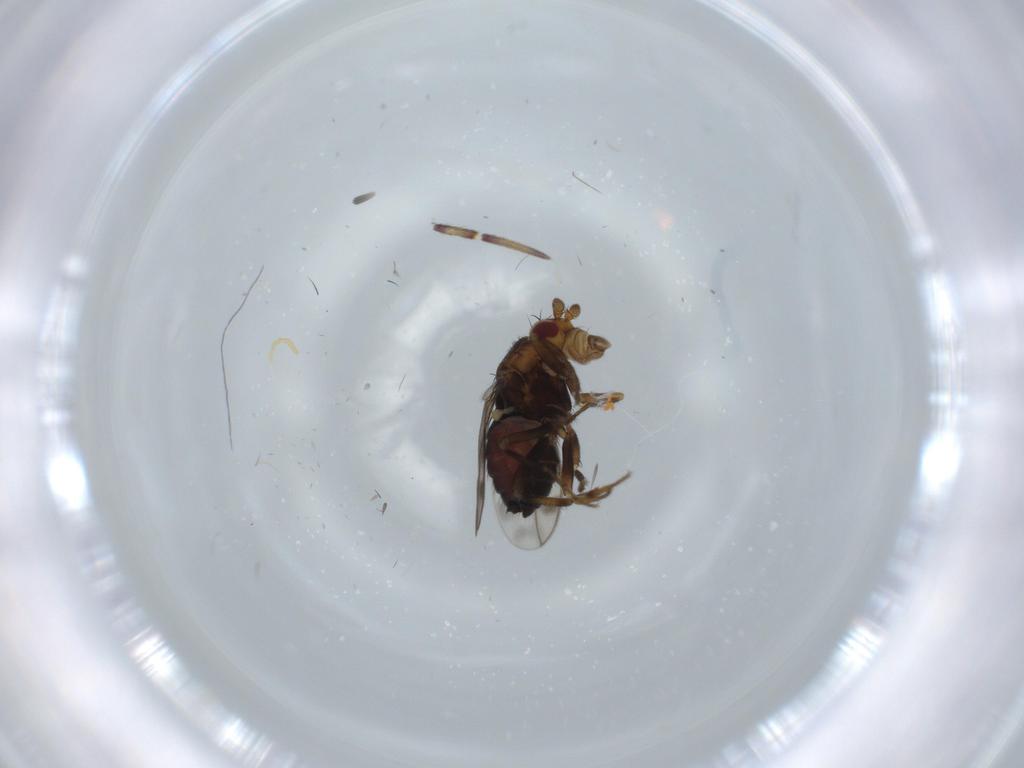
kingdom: Animalia
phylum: Arthropoda
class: Insecta
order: Diptera
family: Sphaeroceridae
